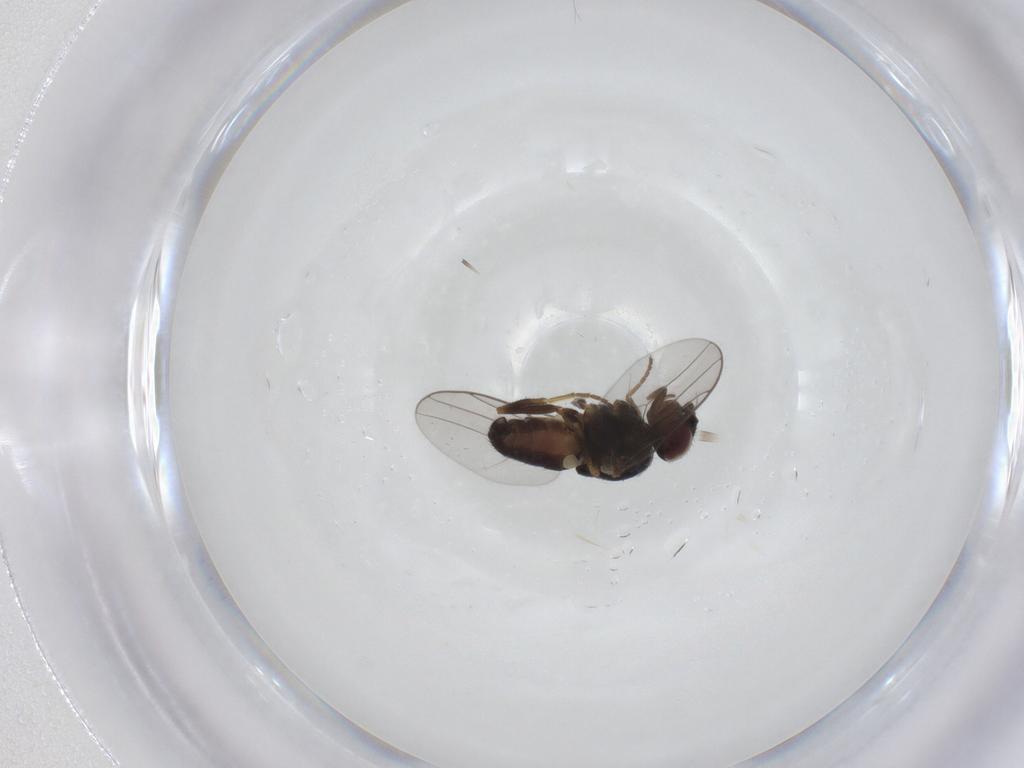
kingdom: Animalia
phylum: Arthropoda
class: Insecta
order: Diptera
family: Chloropidae
